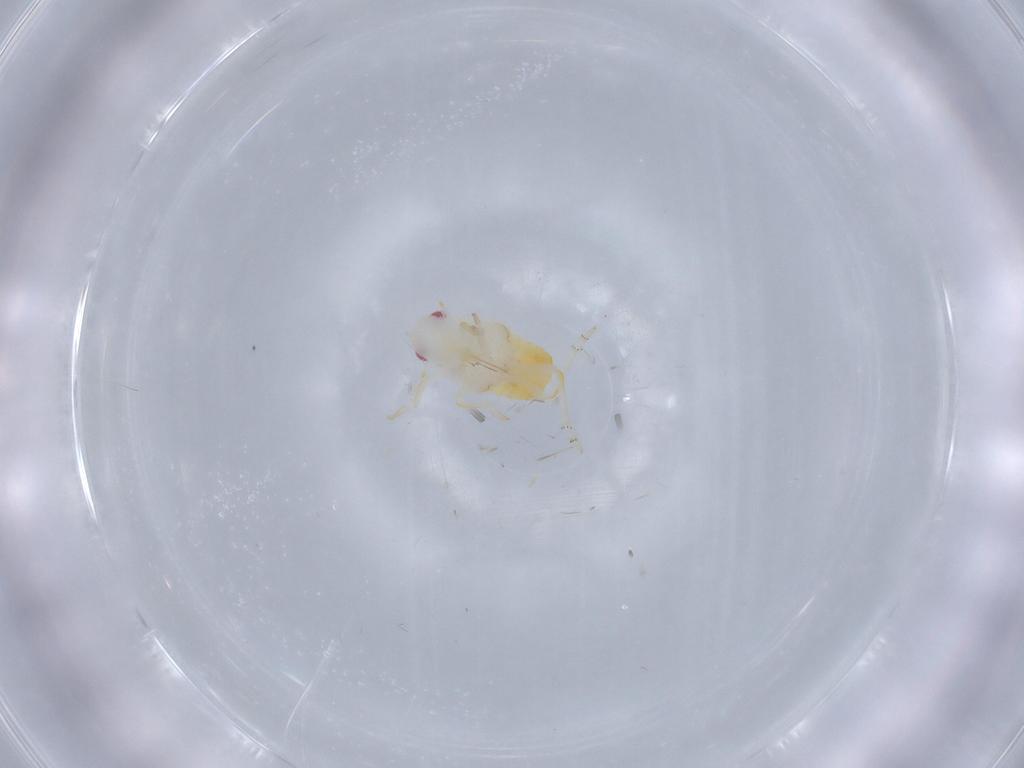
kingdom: Animalia
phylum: Arthropoda
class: Insecta
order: Hemiptera
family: Flatidae
